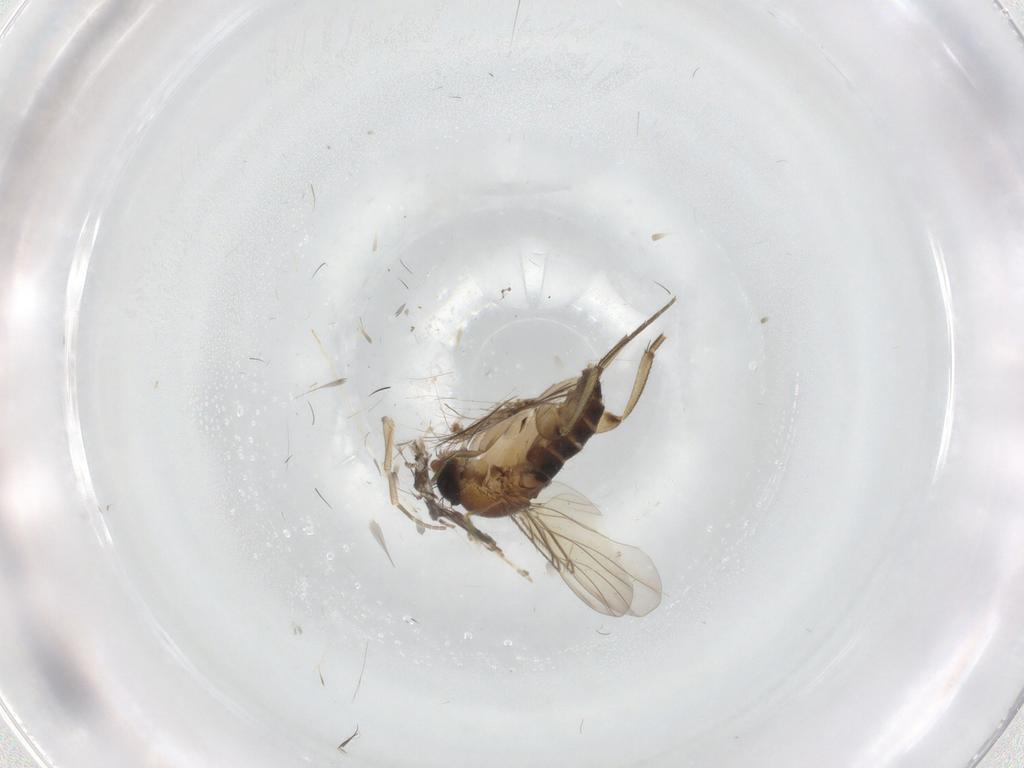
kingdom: Animalia
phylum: Arthropoda
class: Insecta
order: Diptera
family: Phoridae
